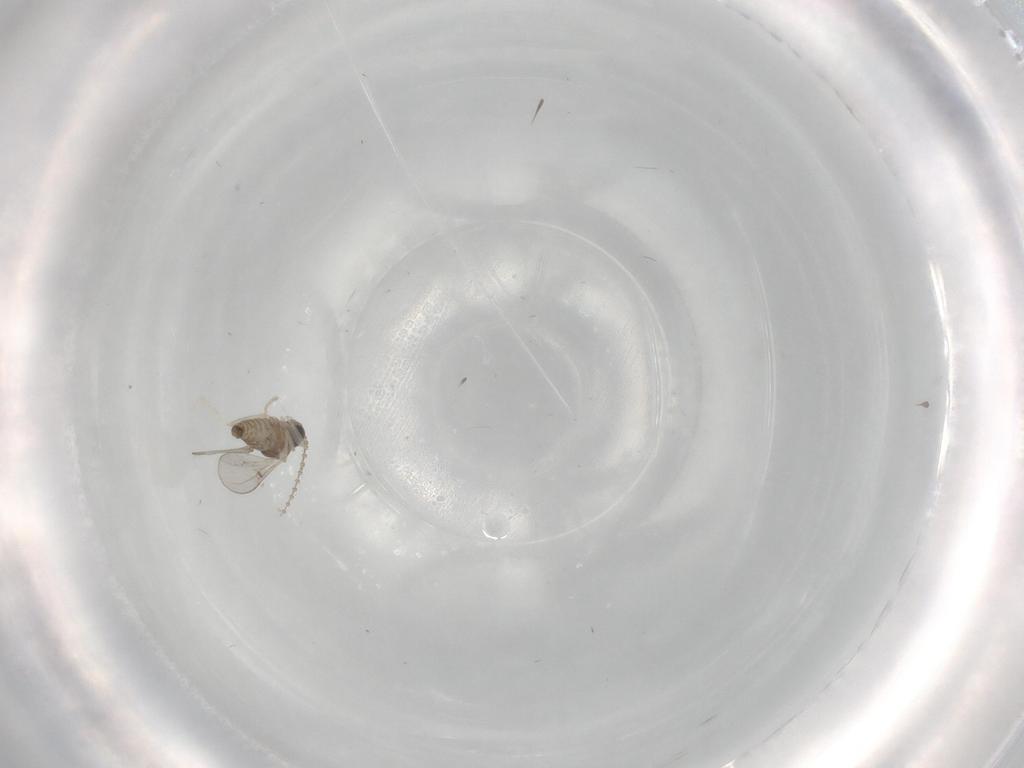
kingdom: Animalia
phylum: Arthropoda
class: Insecta
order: Diptera
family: Cecidomyiidae
